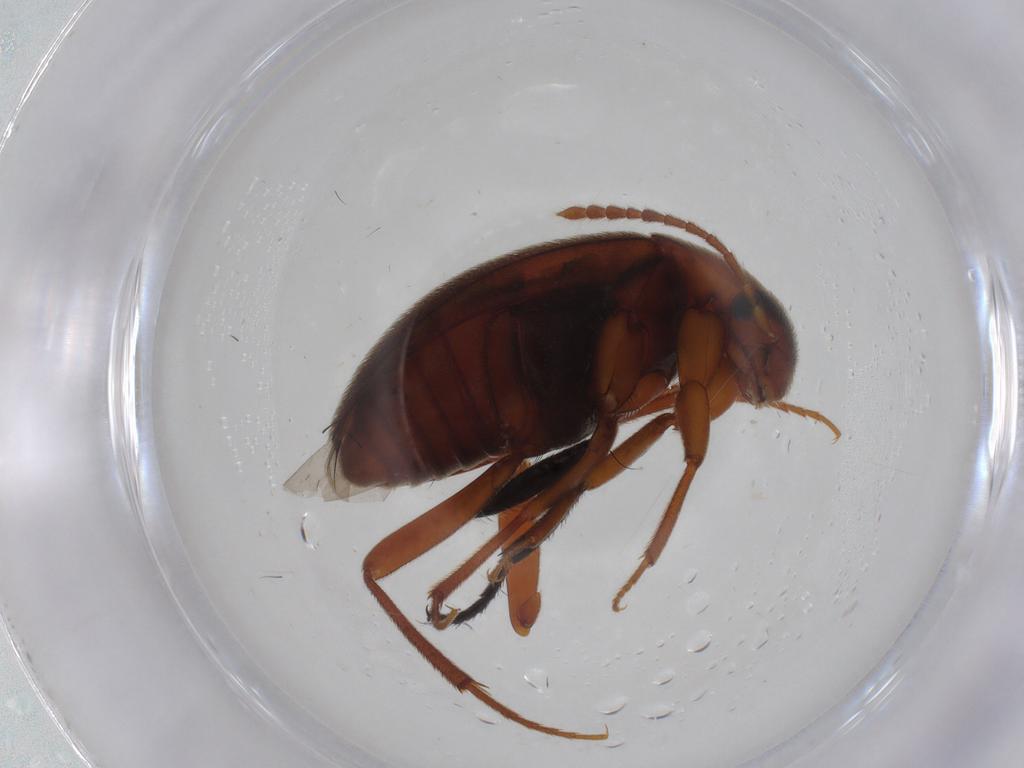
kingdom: Animalia
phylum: Arthropoda
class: Insecta
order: Coleoptera
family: Leiodidae
